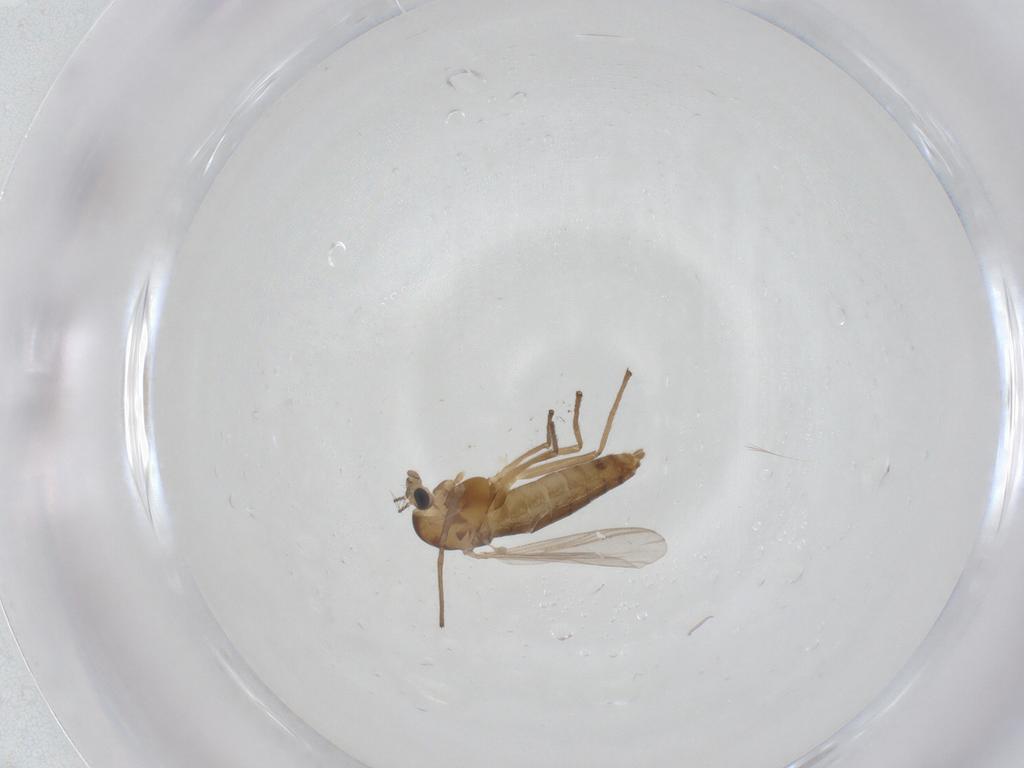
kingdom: Animalia
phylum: Arthropoda
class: Insecta
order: Diptera
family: Chironomidae
